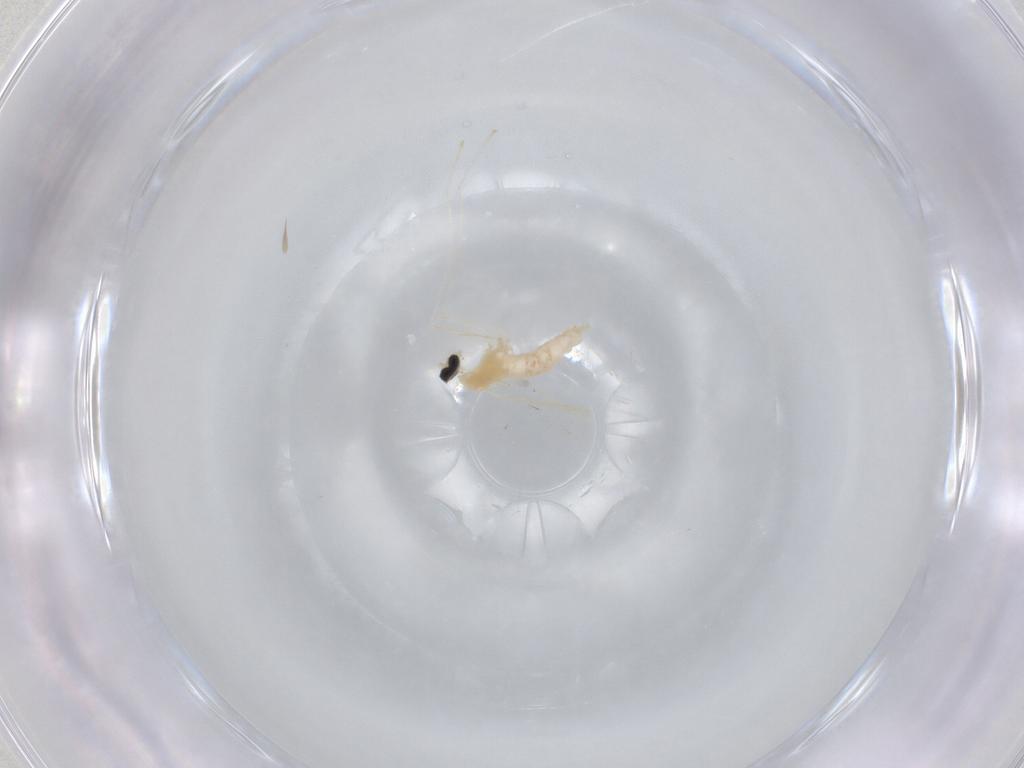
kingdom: Animalia
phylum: Arthropoda
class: Insecta
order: Diptera
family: Cecidomyiidae
